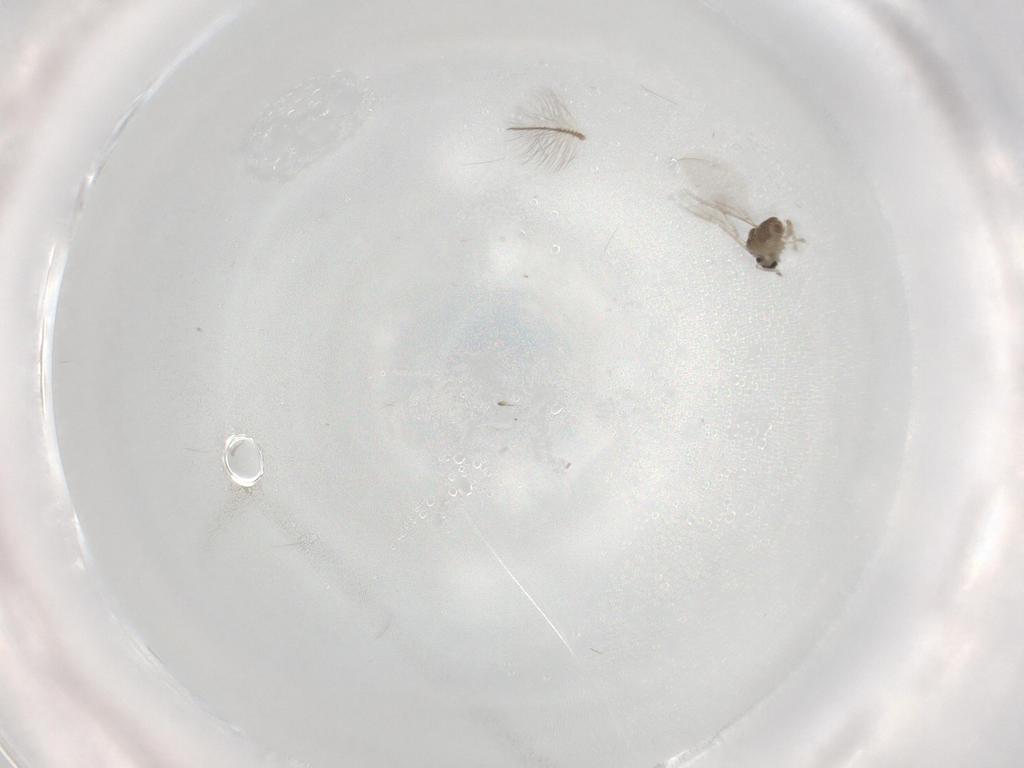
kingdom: Animalia
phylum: Arthropoda
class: Insecta
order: Diptera
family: Chironomidae
